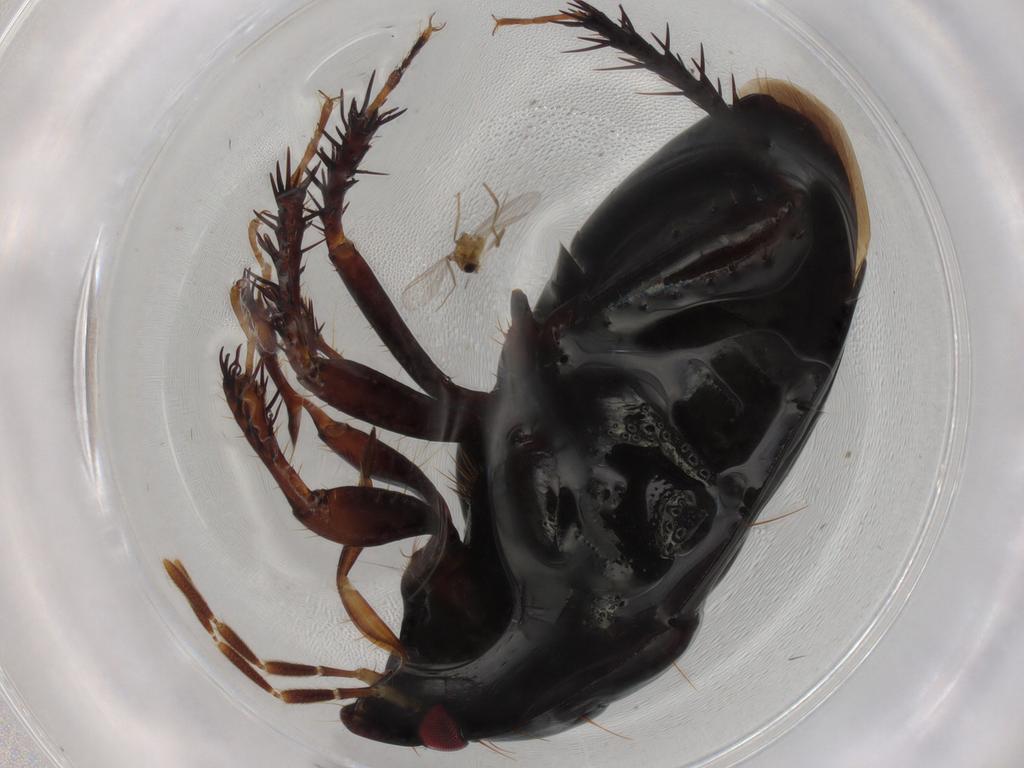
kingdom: Animalia
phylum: Arthropoda
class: Insecta
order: Hemiptera
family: Cydnidae
